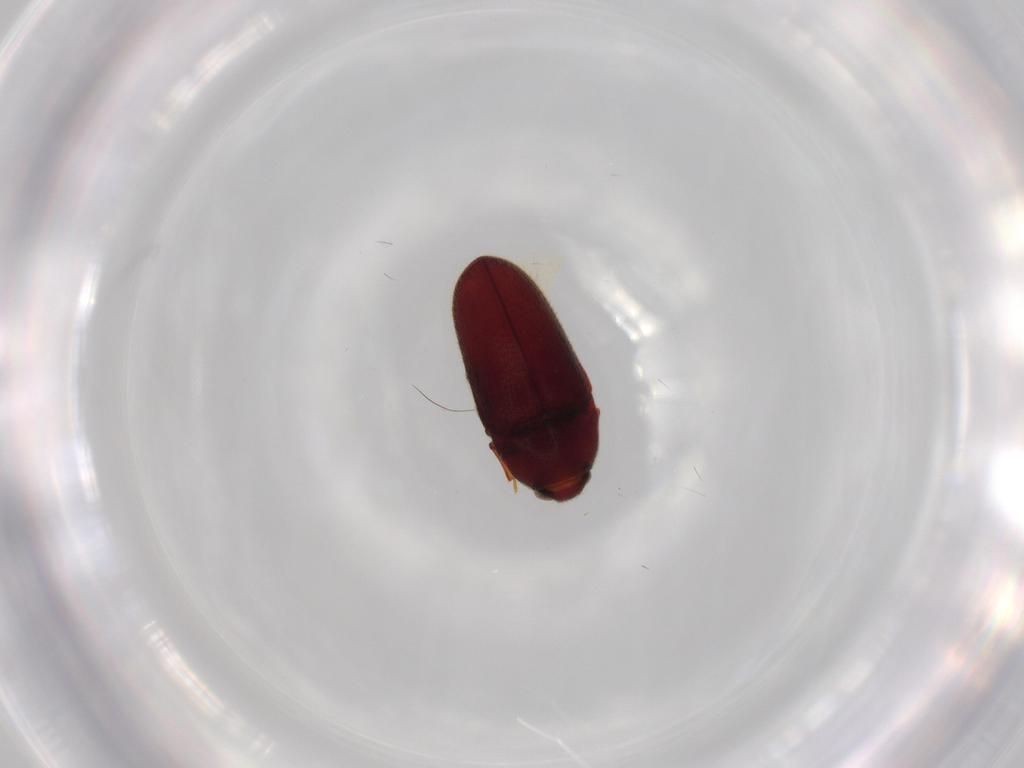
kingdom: Animalia
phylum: Arthropoda
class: Insecta
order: Coleoptera
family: Curculionidae
